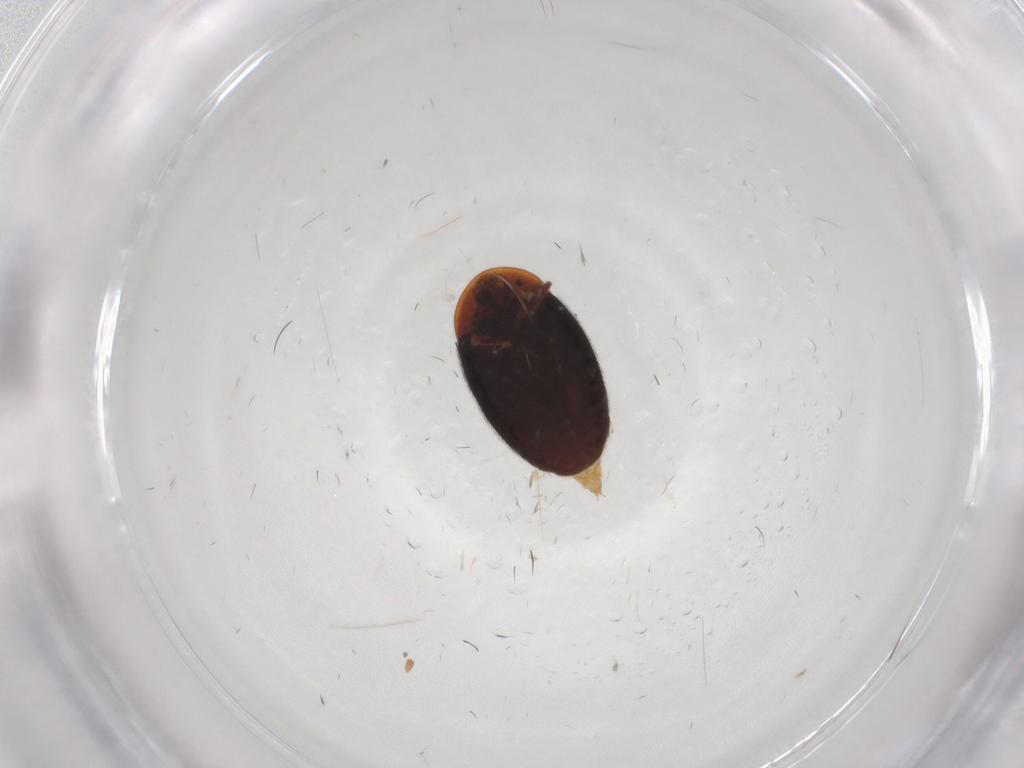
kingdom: Animalia
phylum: Arthropoda
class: Insecta
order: Coleoptera
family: Corylophidae
